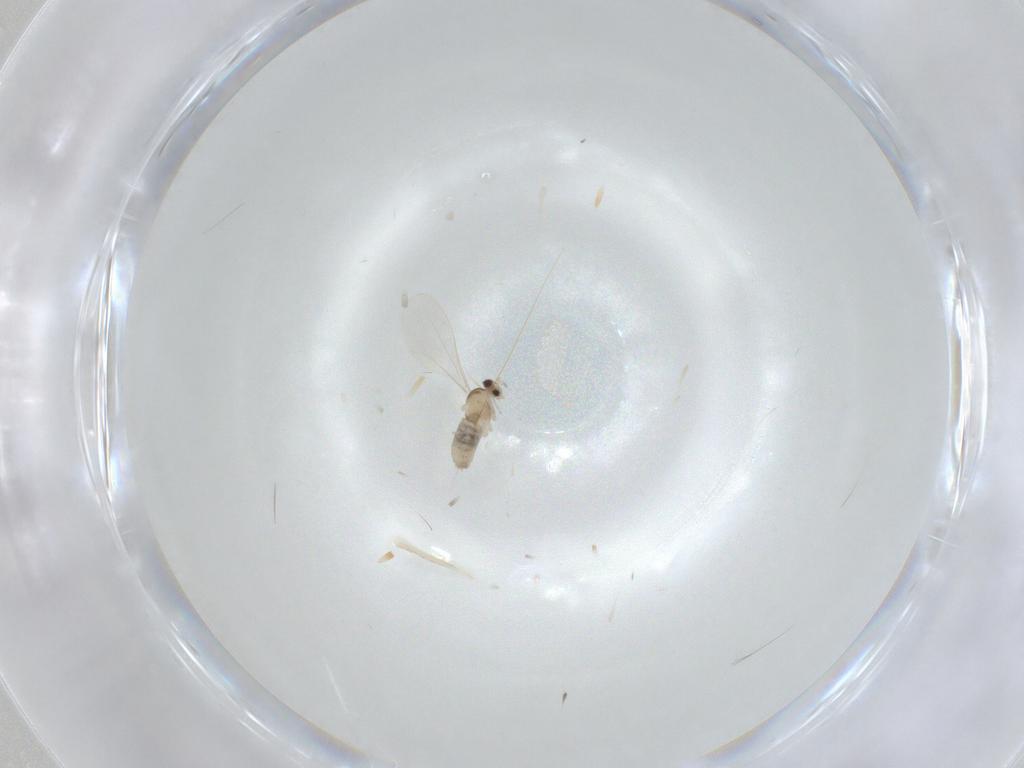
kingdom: Animalia
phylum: Arthropoda
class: Insecta
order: Diptera
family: Cecidomyiidae
